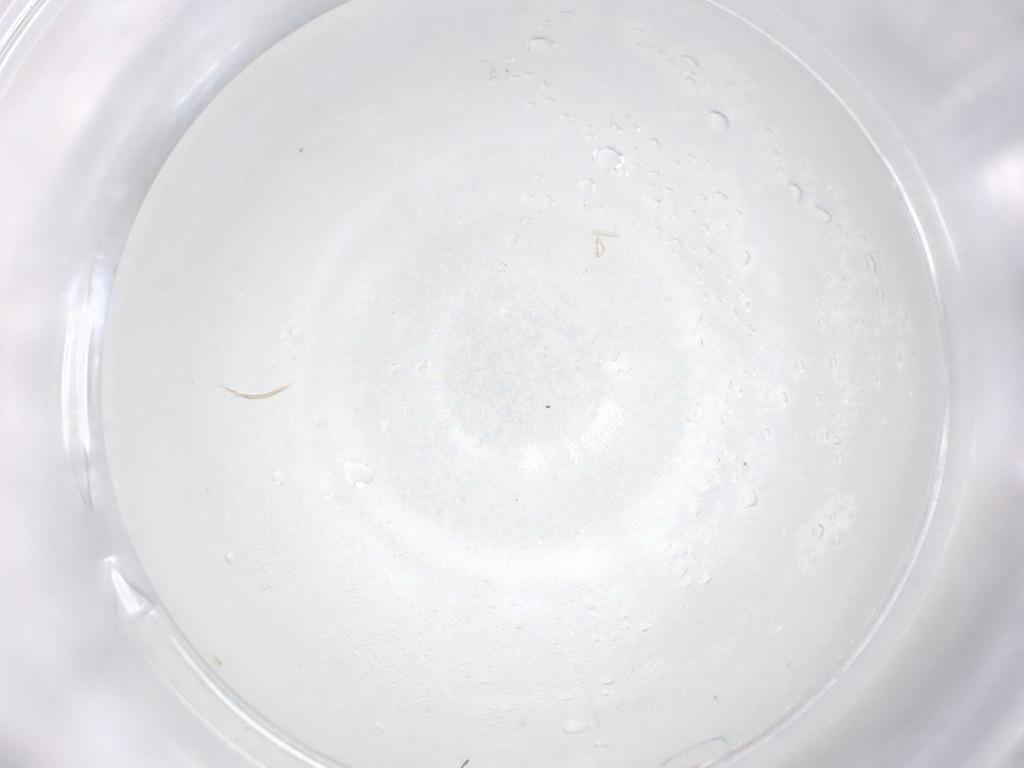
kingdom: Animalia
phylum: Arthropoda
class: Insecta
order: Hymenoptera
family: Mymaridae
